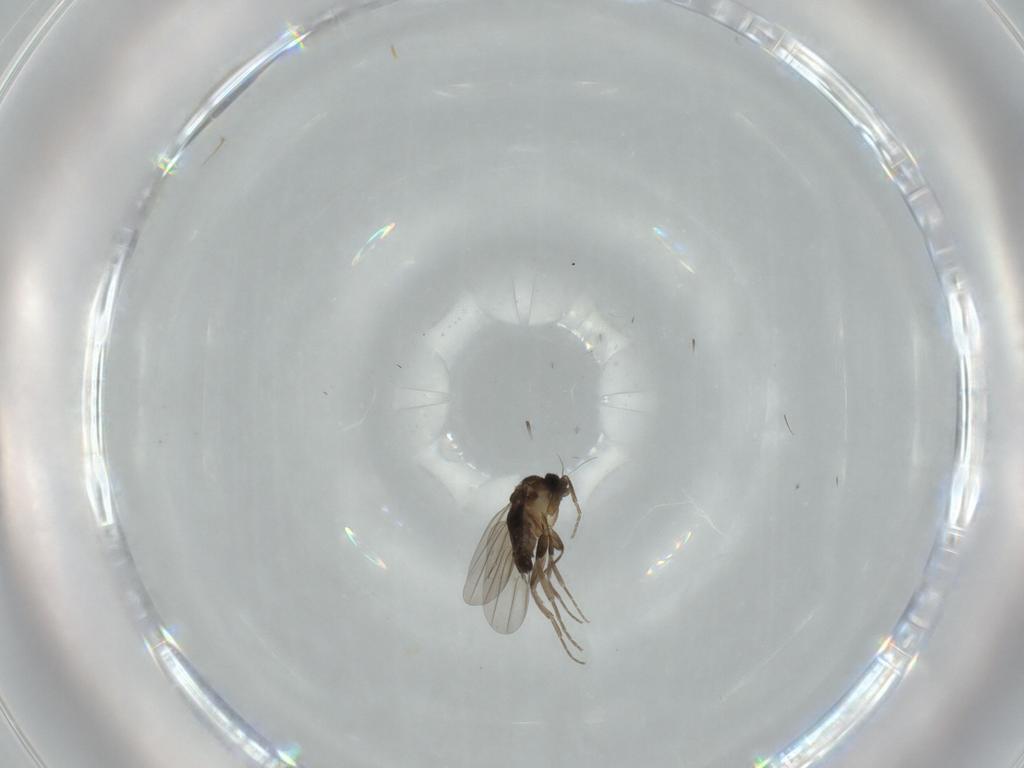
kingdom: Animalia
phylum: Arthropoda
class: Insecta
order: Diptera
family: Phoridae
